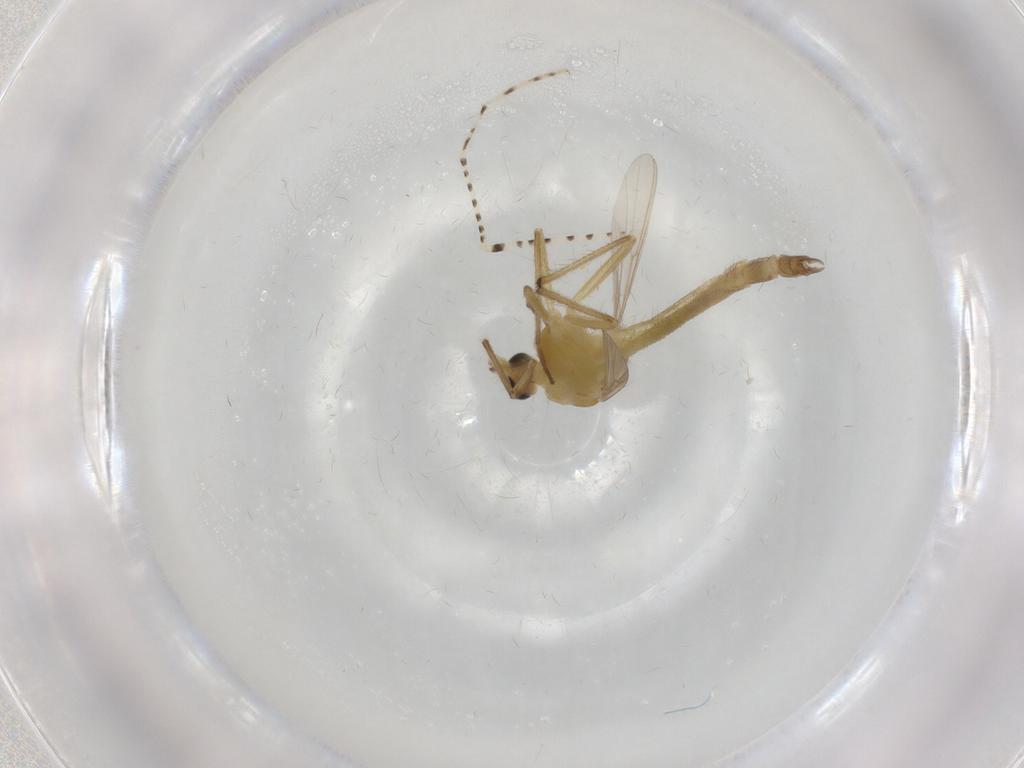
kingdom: Animalia
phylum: Arthropoda
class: Insecta
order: Diptera
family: Chironomidae
